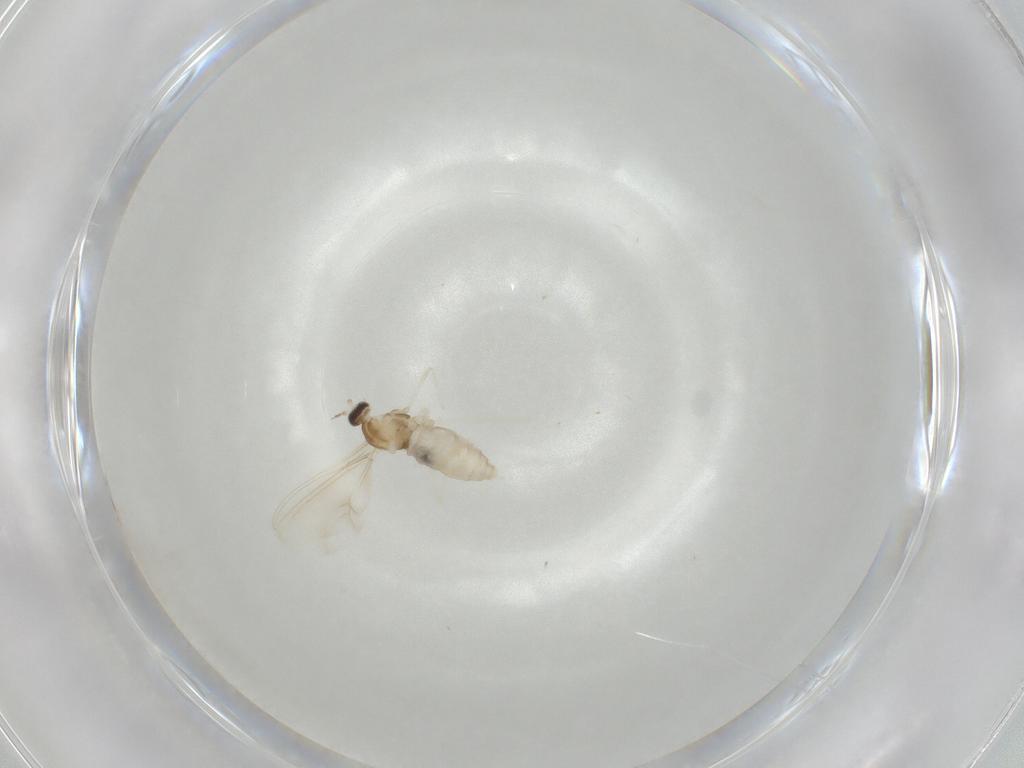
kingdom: Animalia
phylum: Arthropoda
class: Insecta
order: Diptera
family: Cecidomyiidae
